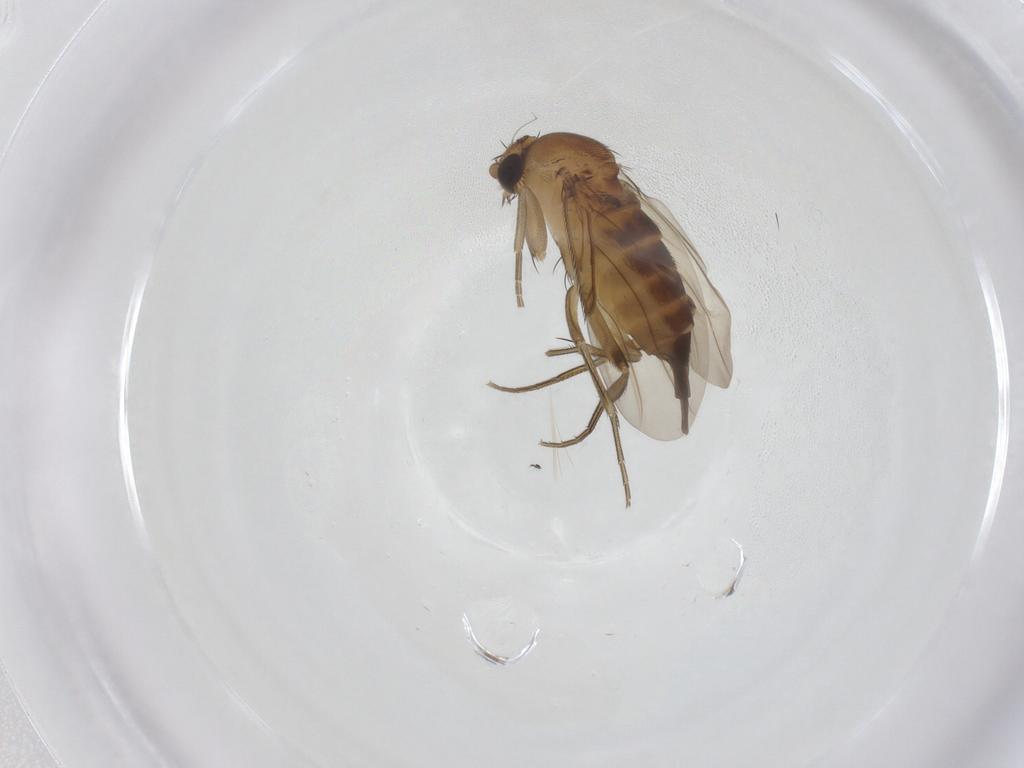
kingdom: Animalia
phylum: Arthropoda
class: Insecta
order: Diptera
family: Phoridae
